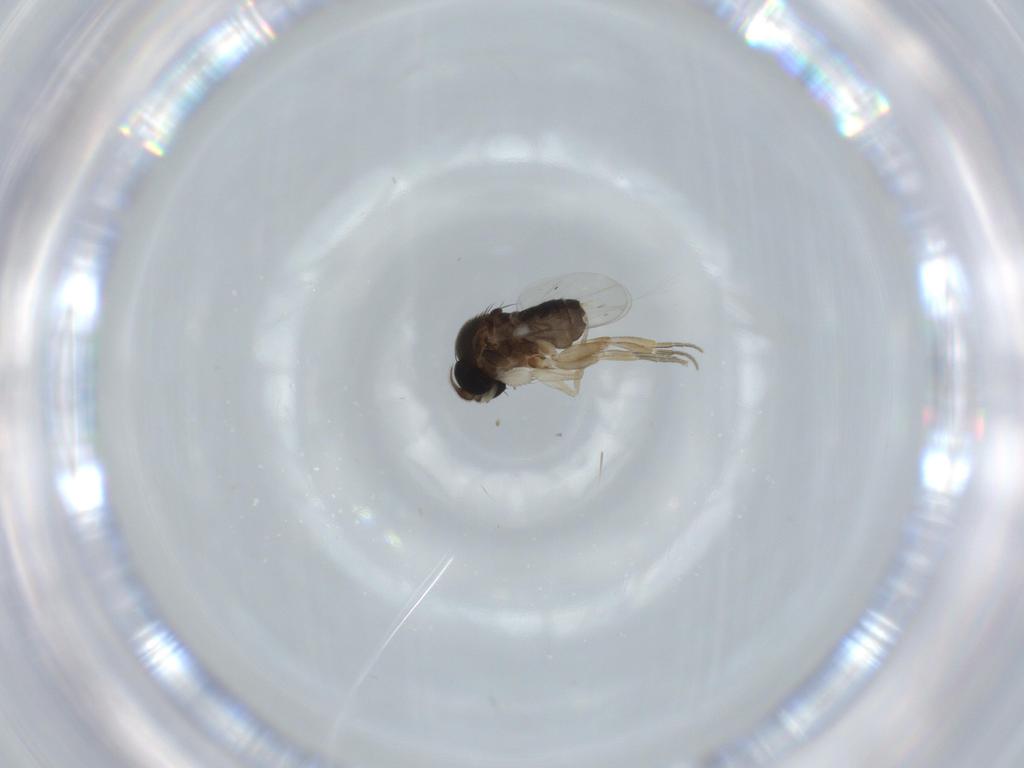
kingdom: Animalia
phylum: Arthropoda
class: Insecta
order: Diptera
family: Phoridae
